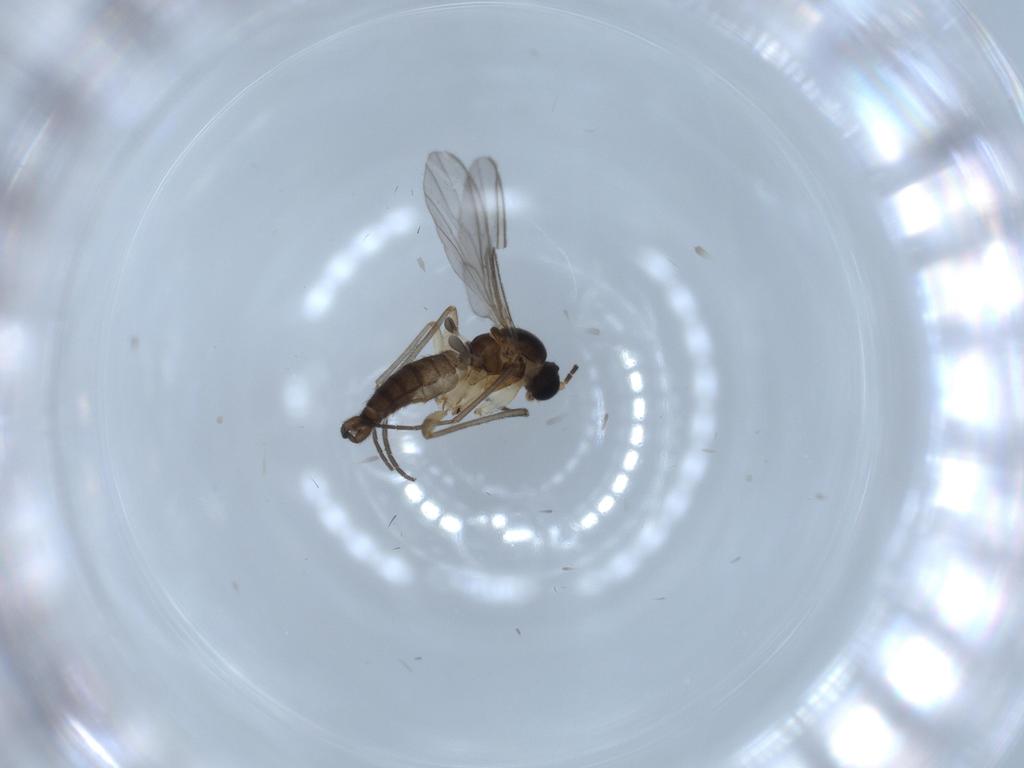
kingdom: Animalia
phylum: Arthropoda
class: Insecta
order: Diptera
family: Sciaridae
